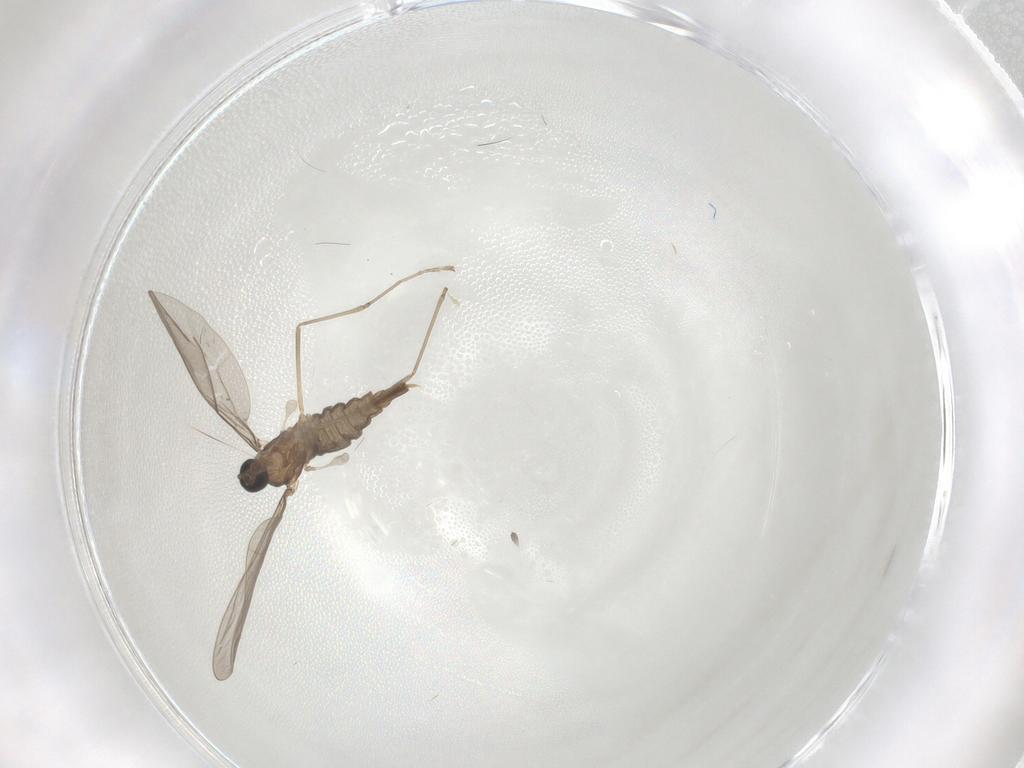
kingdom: Animalia
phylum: Arthropoda
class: Insecta
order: Diptera
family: Cecidomyiidae
